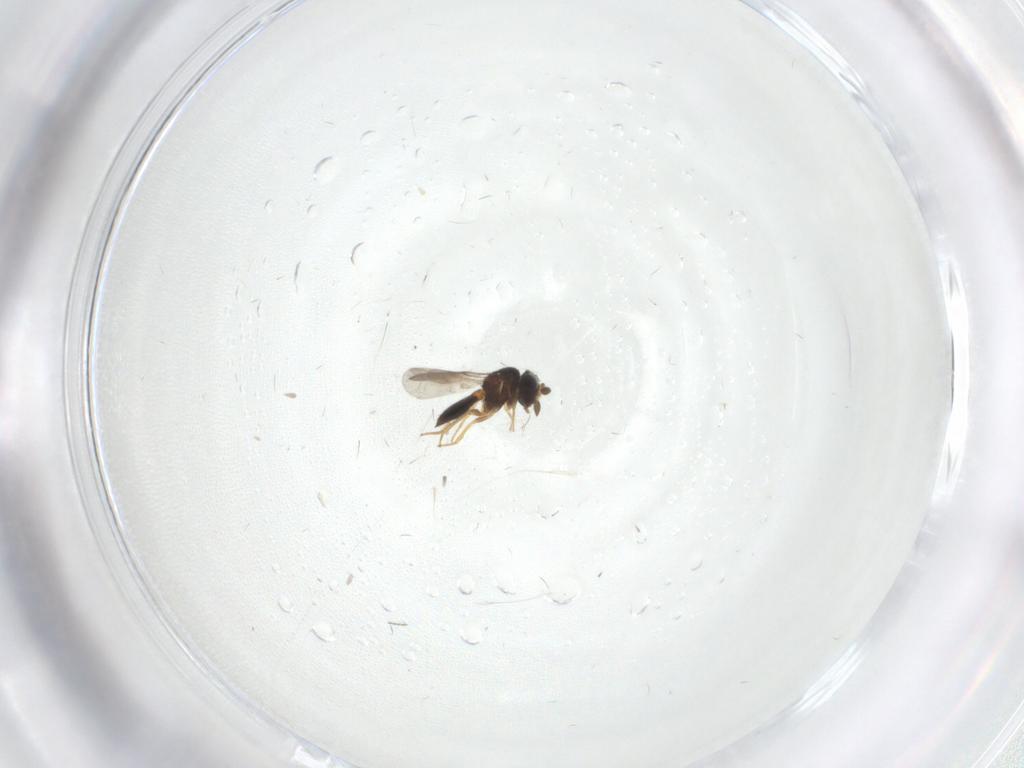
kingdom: Animalia
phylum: Arthropoda
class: Insecta
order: Hymenoptera
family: Scelionidae
